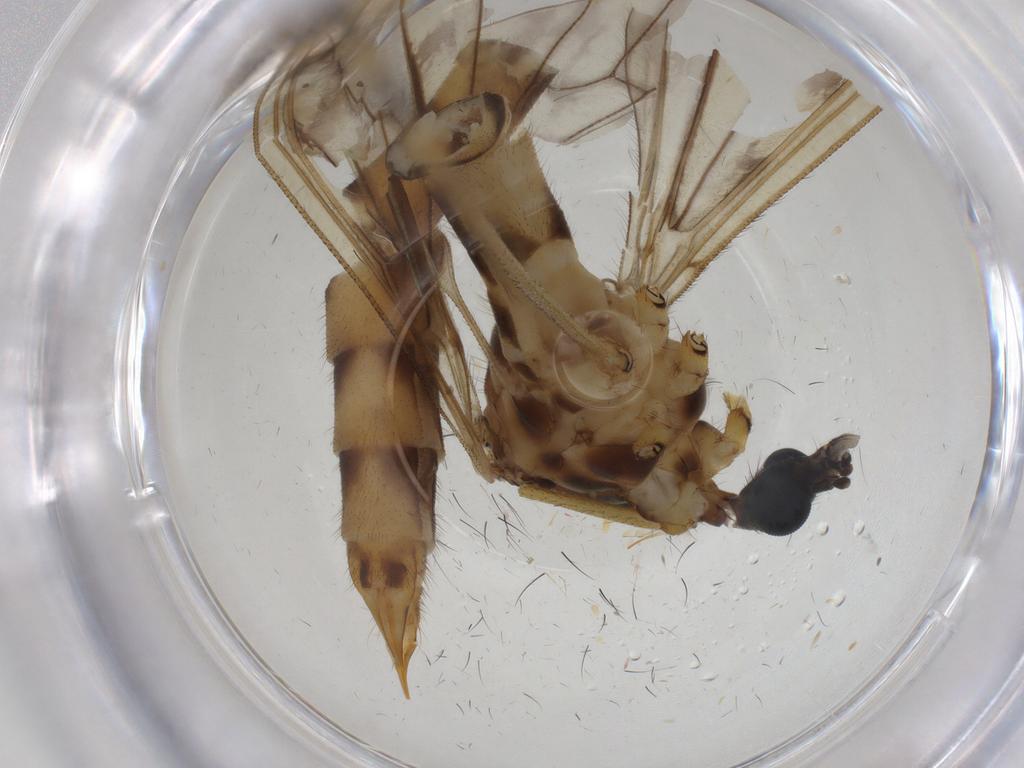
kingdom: Animalia
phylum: Arthropoda
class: Insecta
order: Diptera
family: Limoniidae
